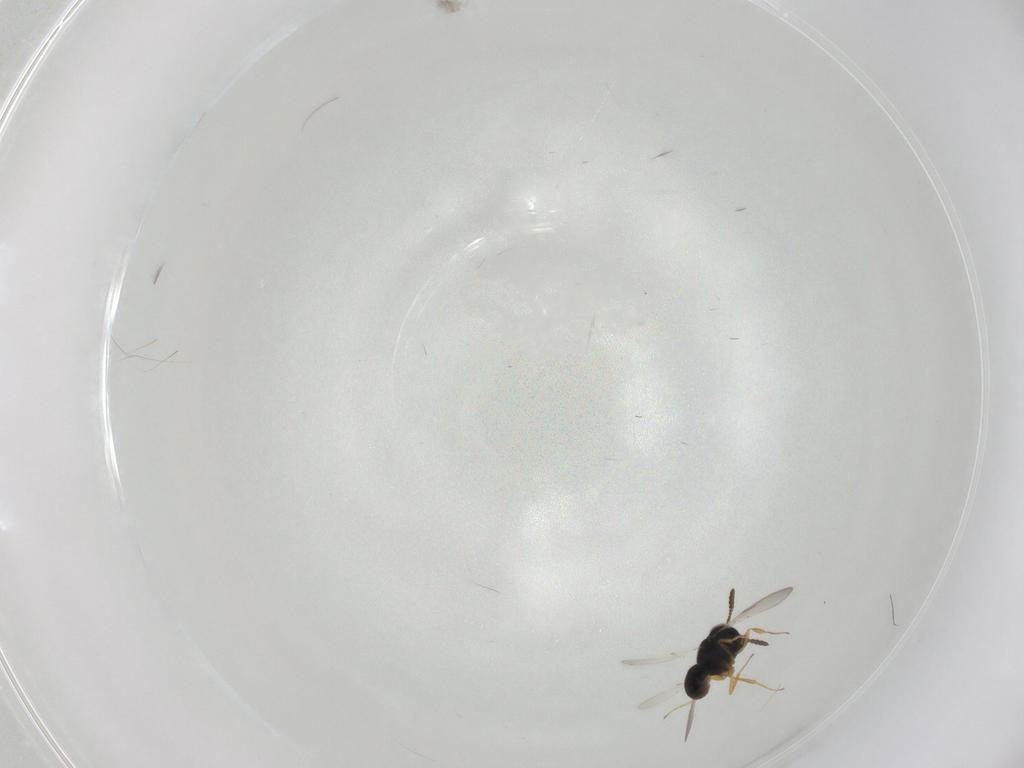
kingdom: Animalia
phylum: Arthropoda
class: Insecta
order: Hymenoptera
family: Scelionidae
